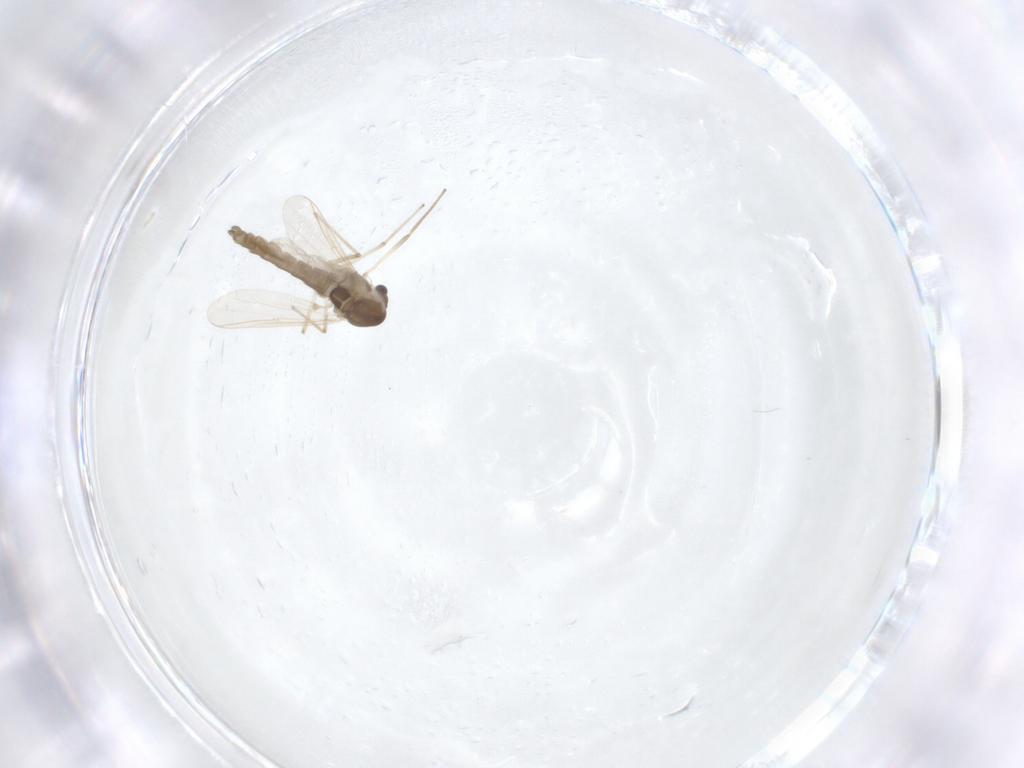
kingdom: Animalia
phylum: Arthropoda
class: Insecta
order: Diptera
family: Chironomidae
